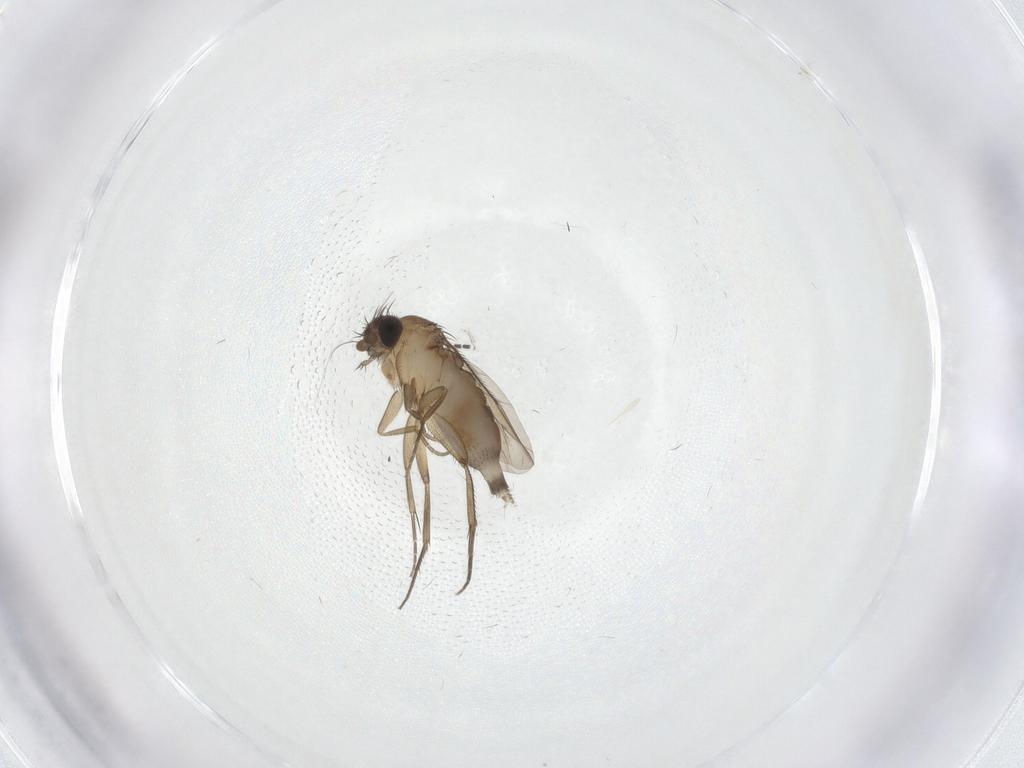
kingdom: Animalia
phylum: Arthropoda
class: Insecta
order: Diptera
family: Phoridae
